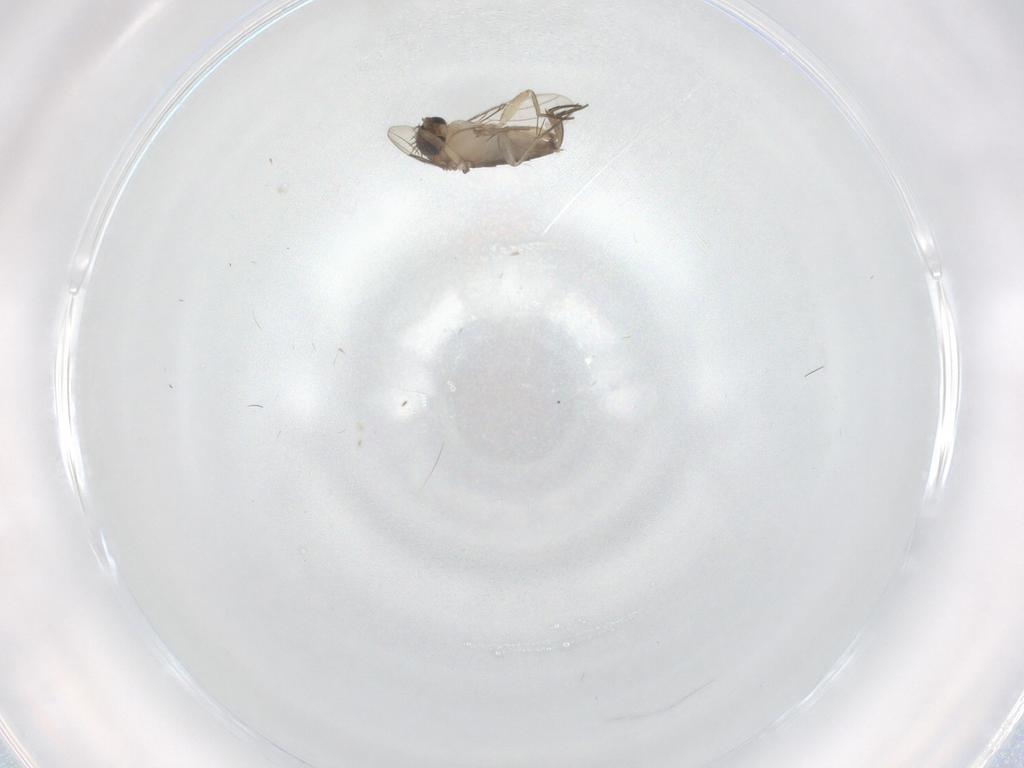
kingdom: Animalia
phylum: Arthropoda
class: Insecta
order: Diptera
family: Phoridae
